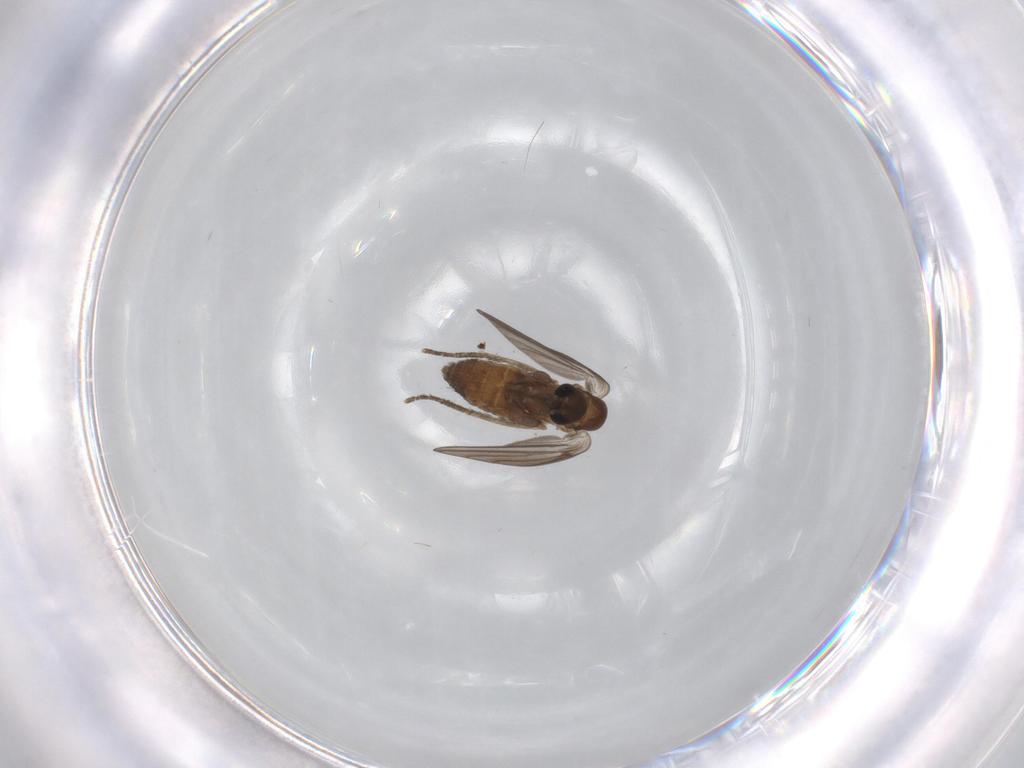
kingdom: Animalia
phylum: Arthropoda
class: Insecta
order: Diptera
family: Psychodidae
